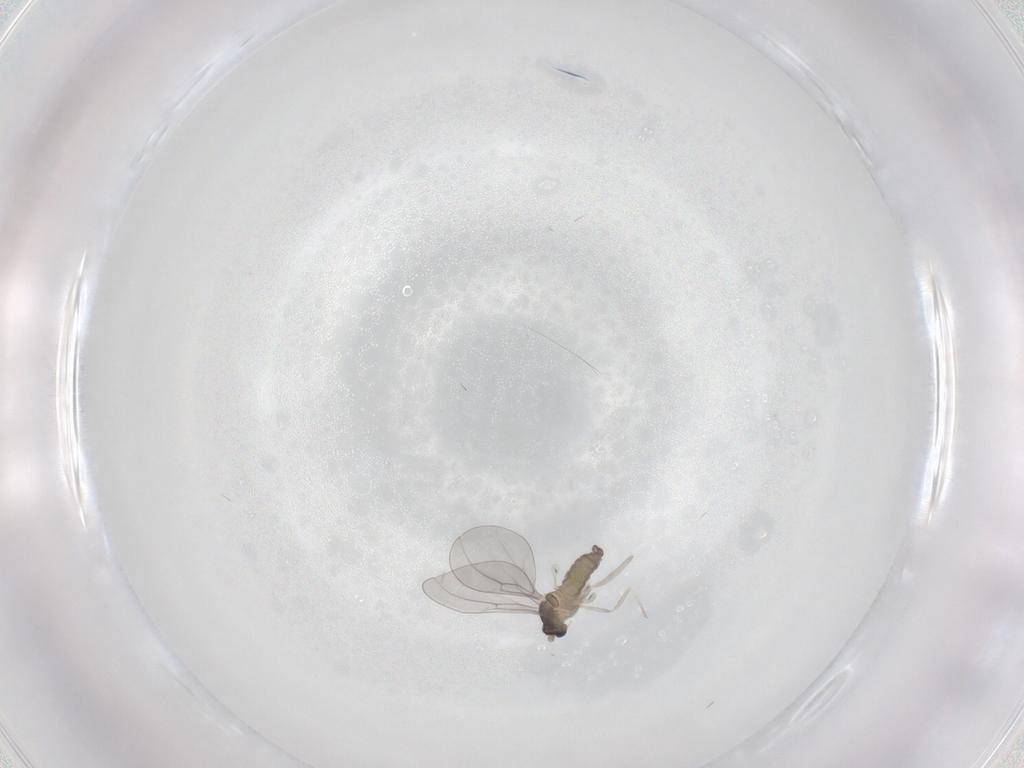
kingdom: Animalia
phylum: Arthropoda
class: Insecta
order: Diptera
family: Cecidomyiidae
